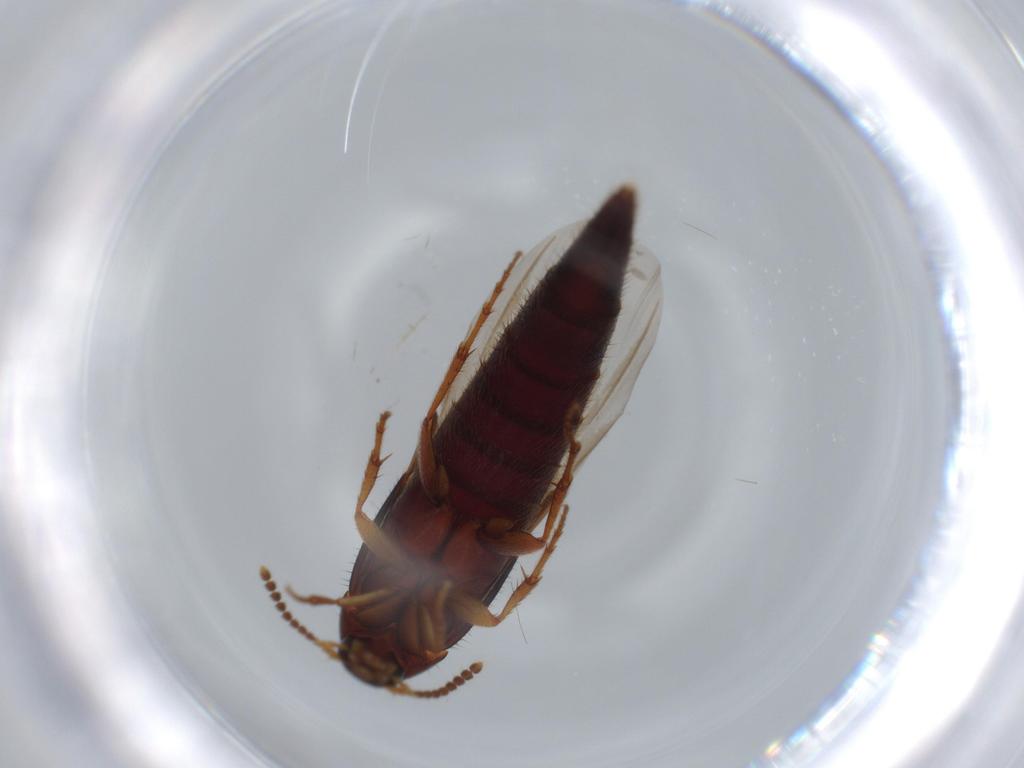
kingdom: Animalia
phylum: Arthropoda
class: Insecta
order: Coleoptera
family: Staphylinidae
